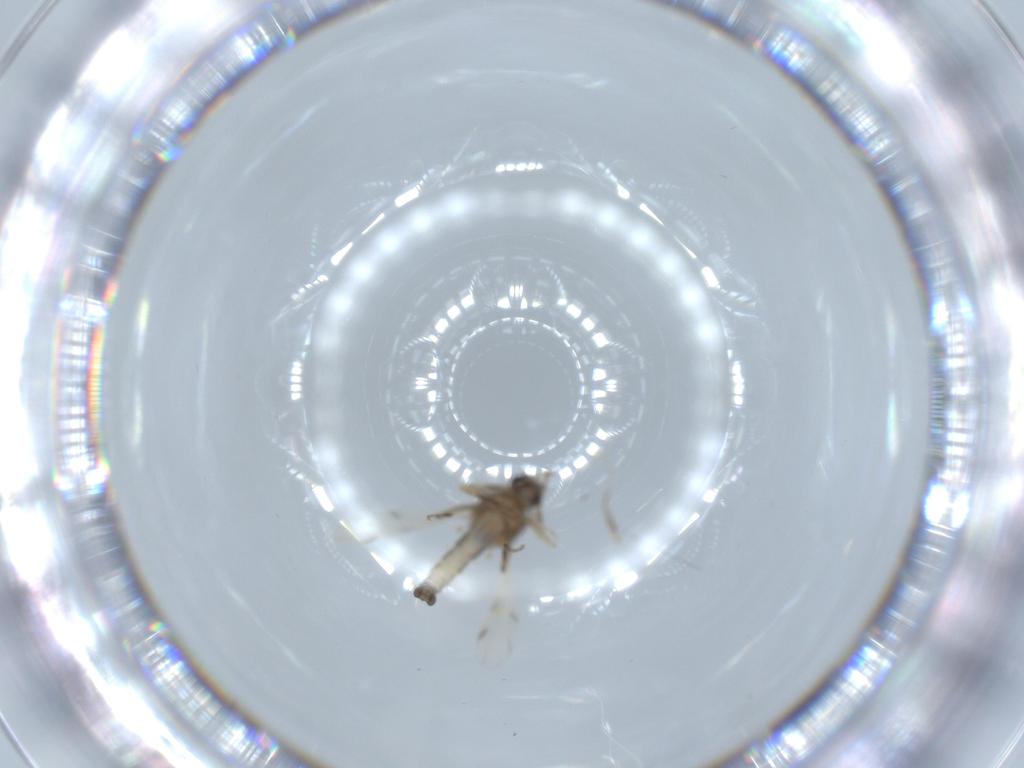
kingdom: Animalia
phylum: Arthropoda
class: Insecta
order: Diptera
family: Ceratopogonidae
